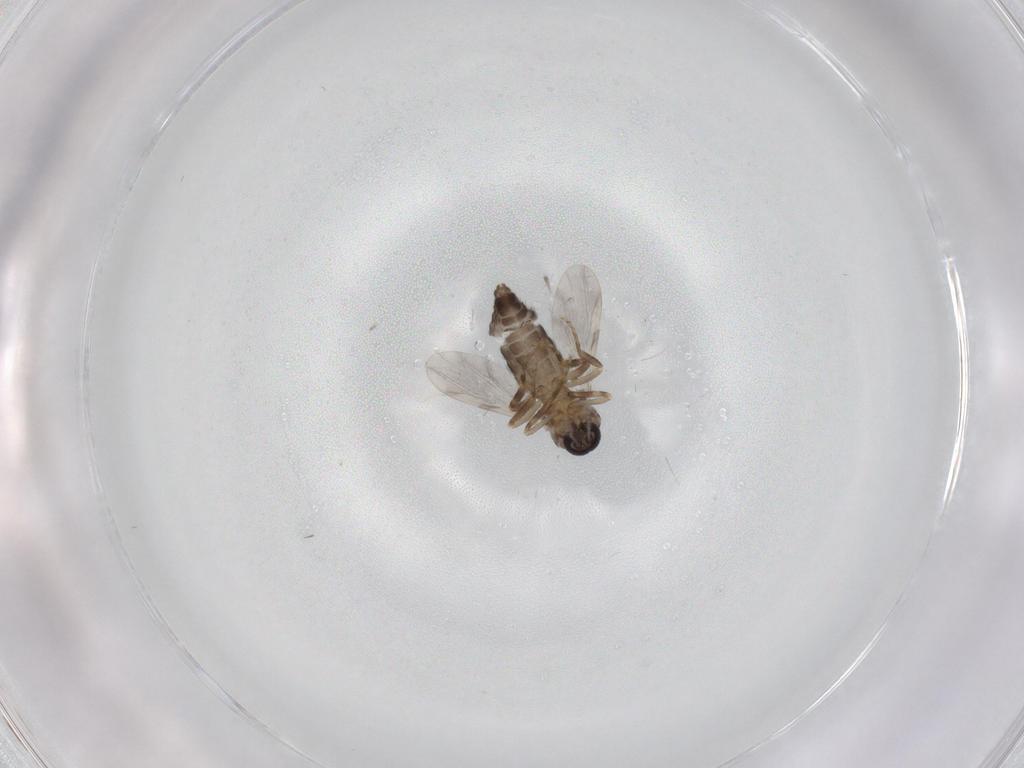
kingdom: Animalia
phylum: Arthropoda
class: Insecta
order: Diptera
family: Ceratopogonidae
